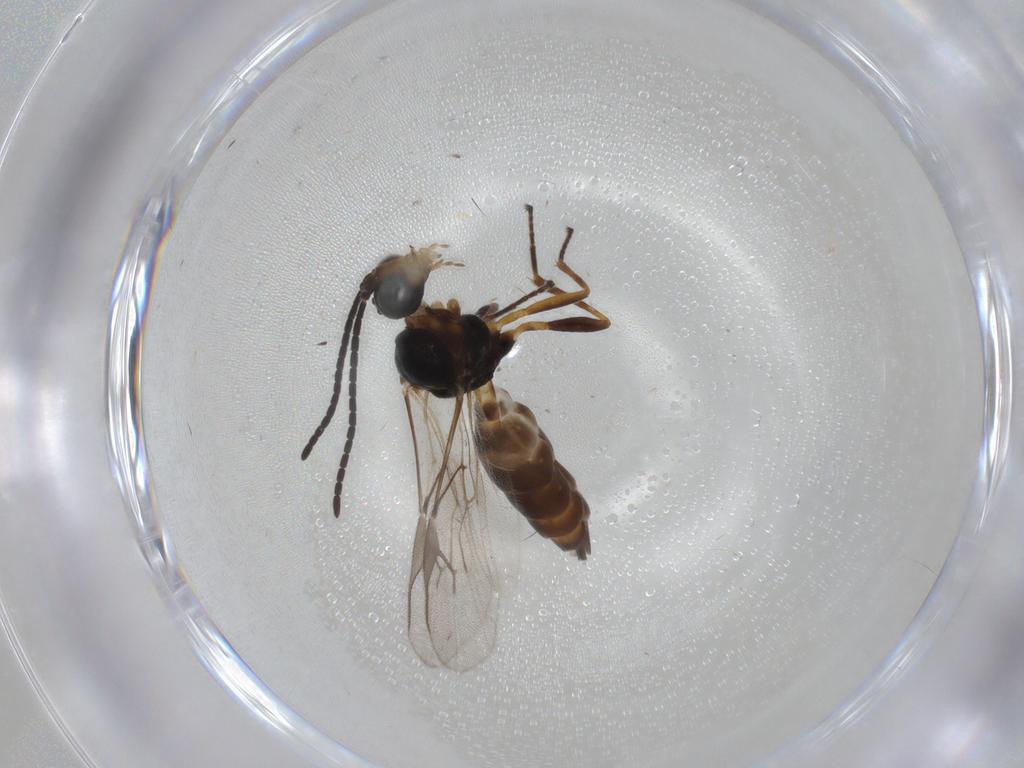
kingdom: Animalia
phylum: Arthropoda
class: Insecta
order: Hymenoptera
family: Braconidae
